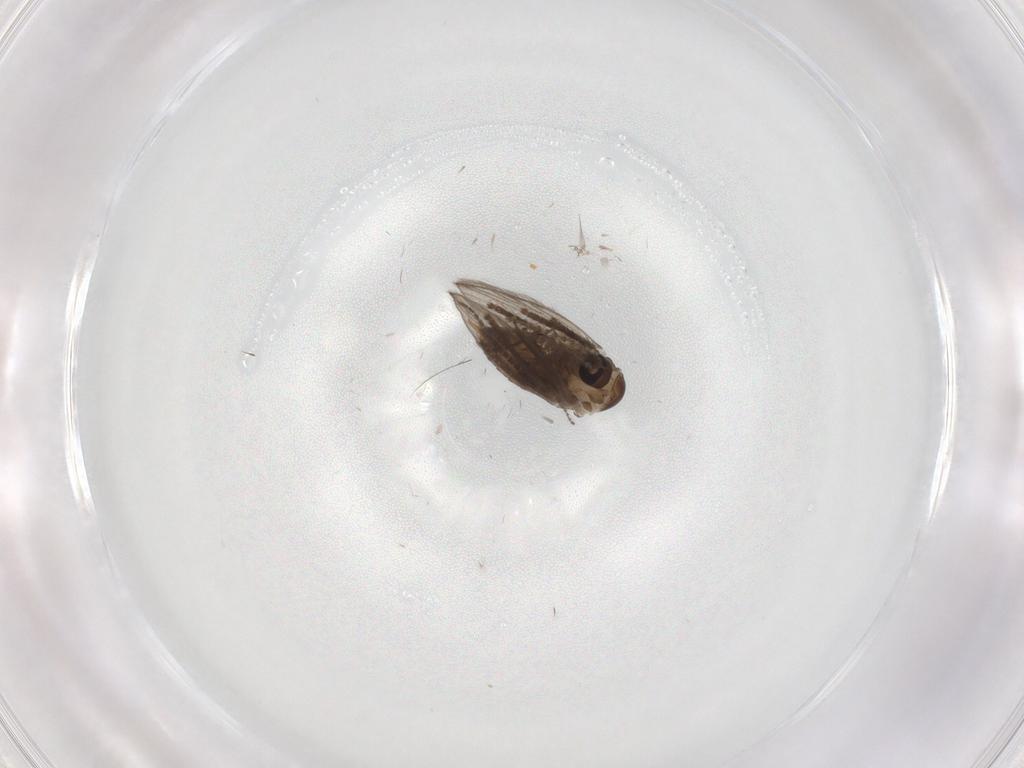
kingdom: Animalia
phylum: Arthropoda
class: Insecta
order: Diptera
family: Psychodidae
